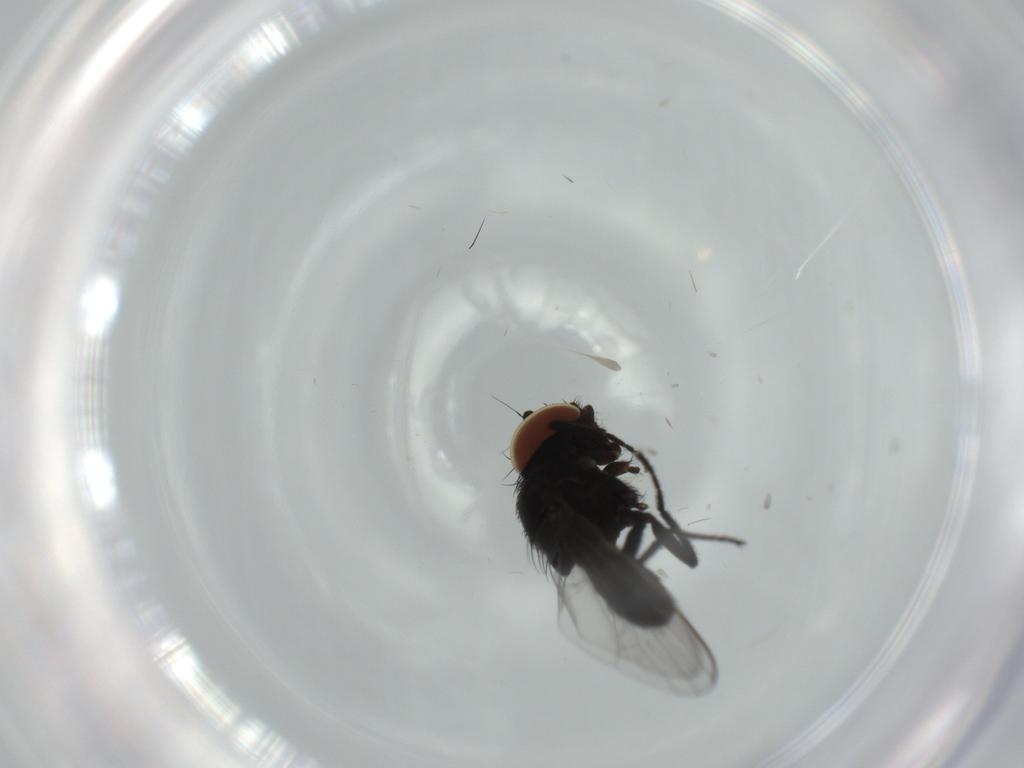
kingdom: Animalia
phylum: Arthropoda
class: Insecta
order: Diptera
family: Milichiidae
